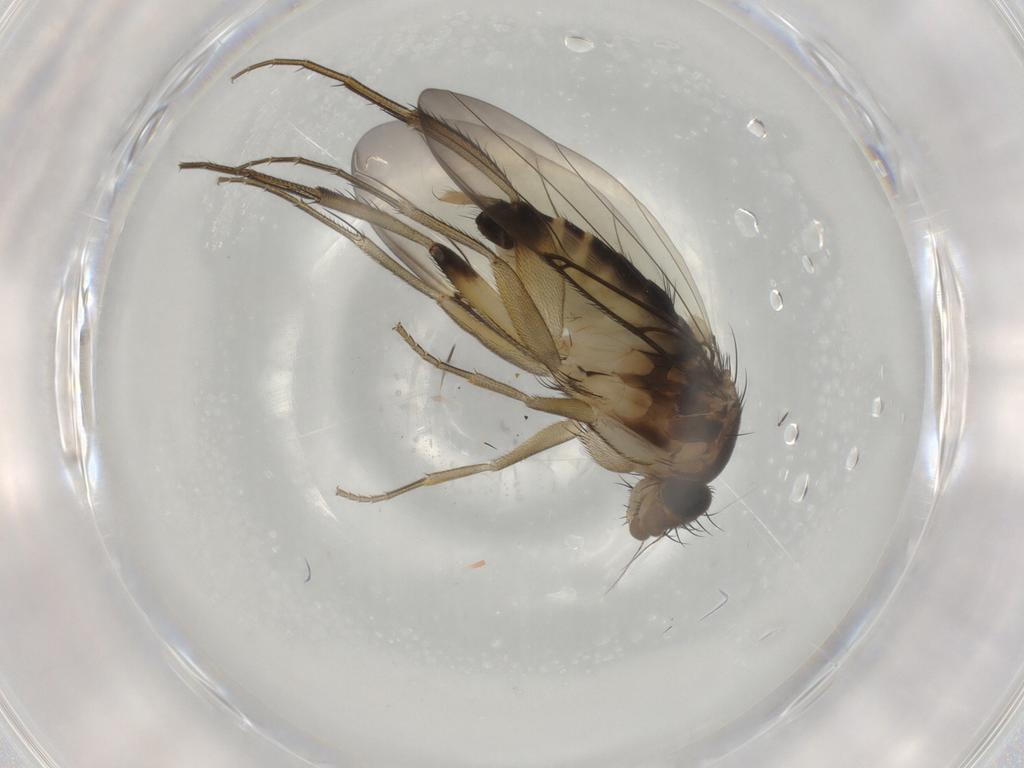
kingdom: Animalia
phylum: Arthropoda
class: Insecta
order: Diptera
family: Phoridae
